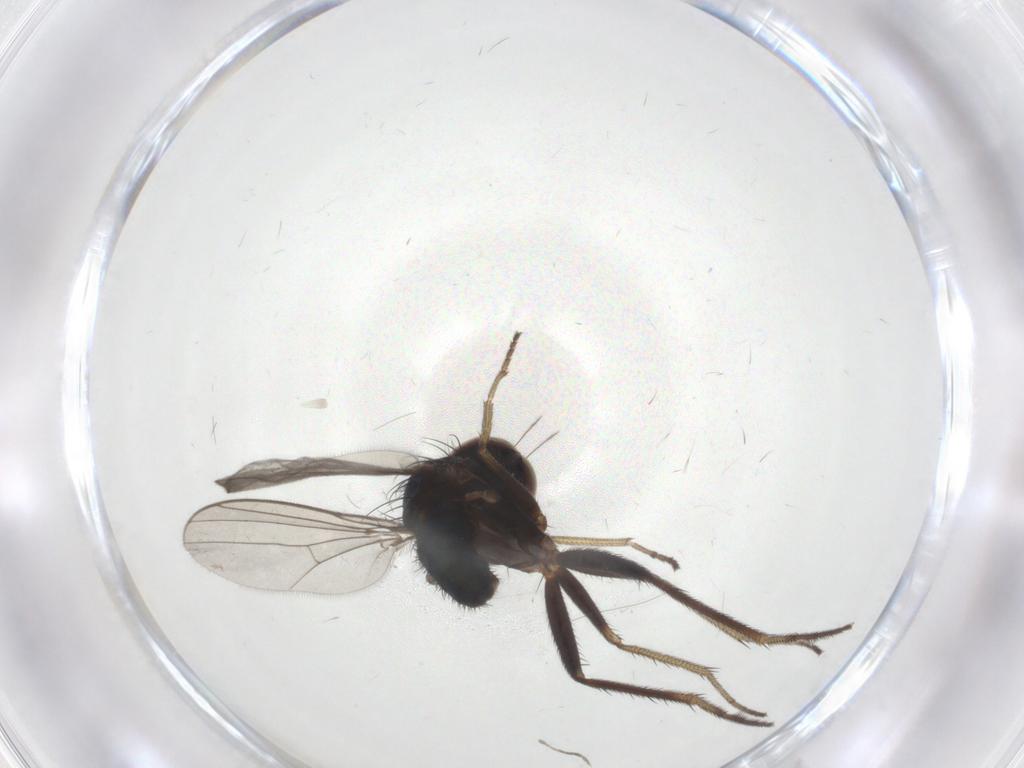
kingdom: Animalia
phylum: Arthropoda
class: Insecta
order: Diptera
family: Dolichopodidae
